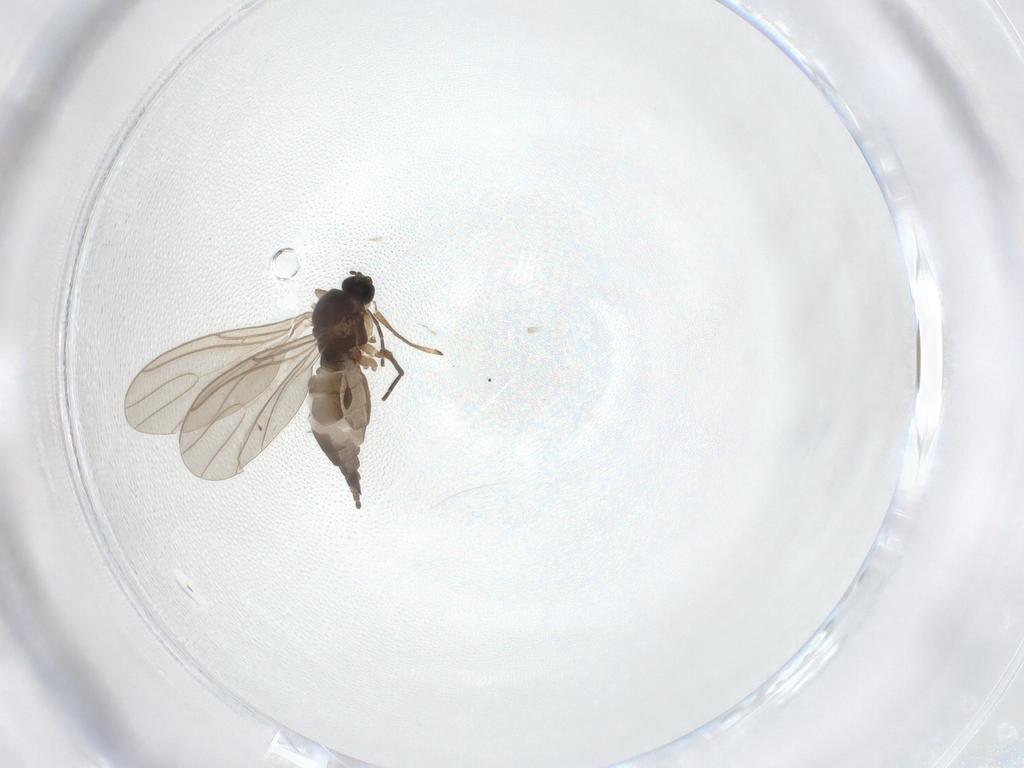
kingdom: Animalia
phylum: Arthropoda
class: Insecta
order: Diptera
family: Sciaridae
